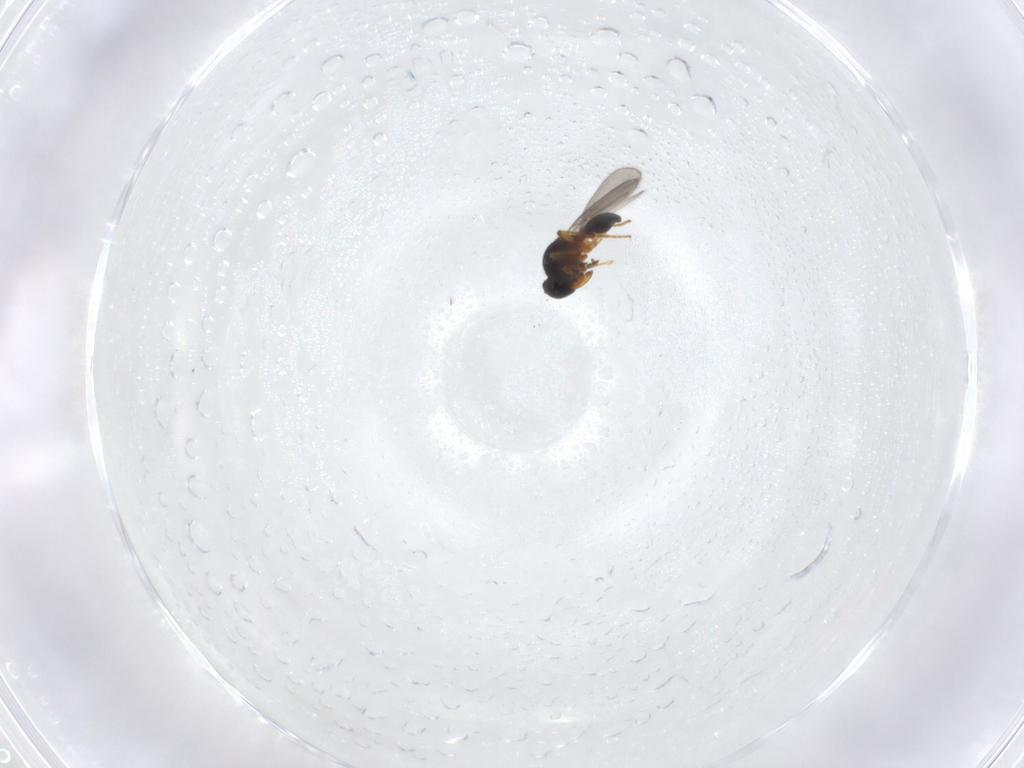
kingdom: Animalia
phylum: Arthropoda
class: Insecta
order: Hymenoptera
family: Platygastridae
